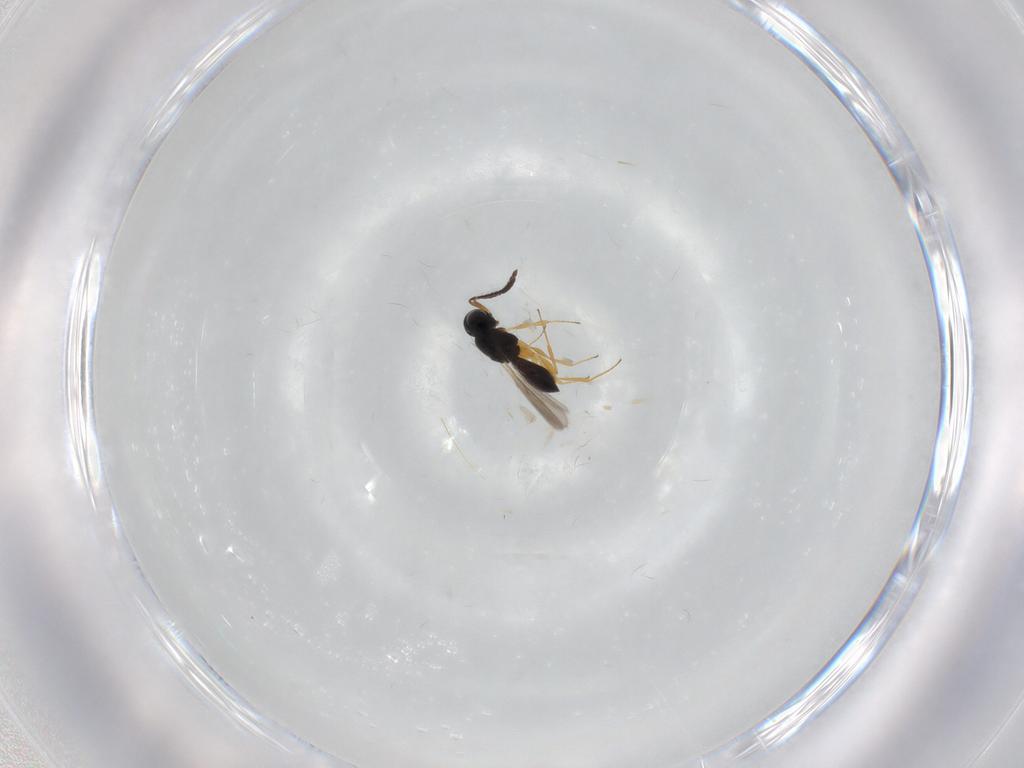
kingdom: Animalia
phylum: Arthropoda
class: Insecta
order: Hymenoptera
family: Scelionidae
